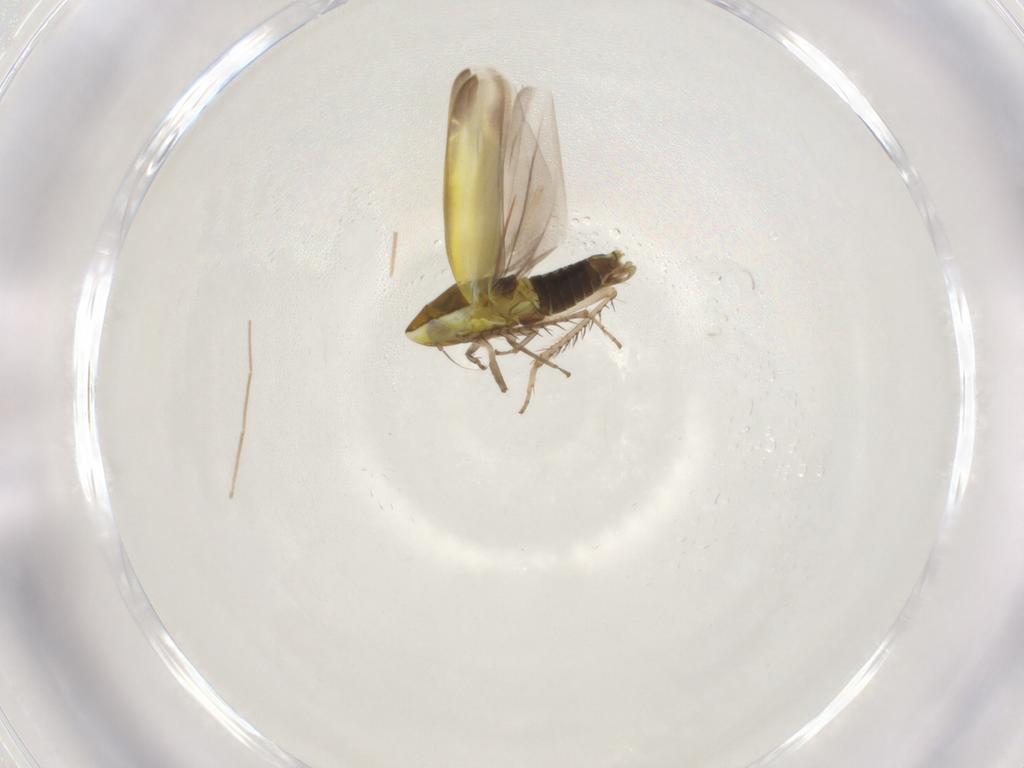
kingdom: Animalia
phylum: Arthropoda
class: Insecta
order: Hemiptera
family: Cicadellidae
